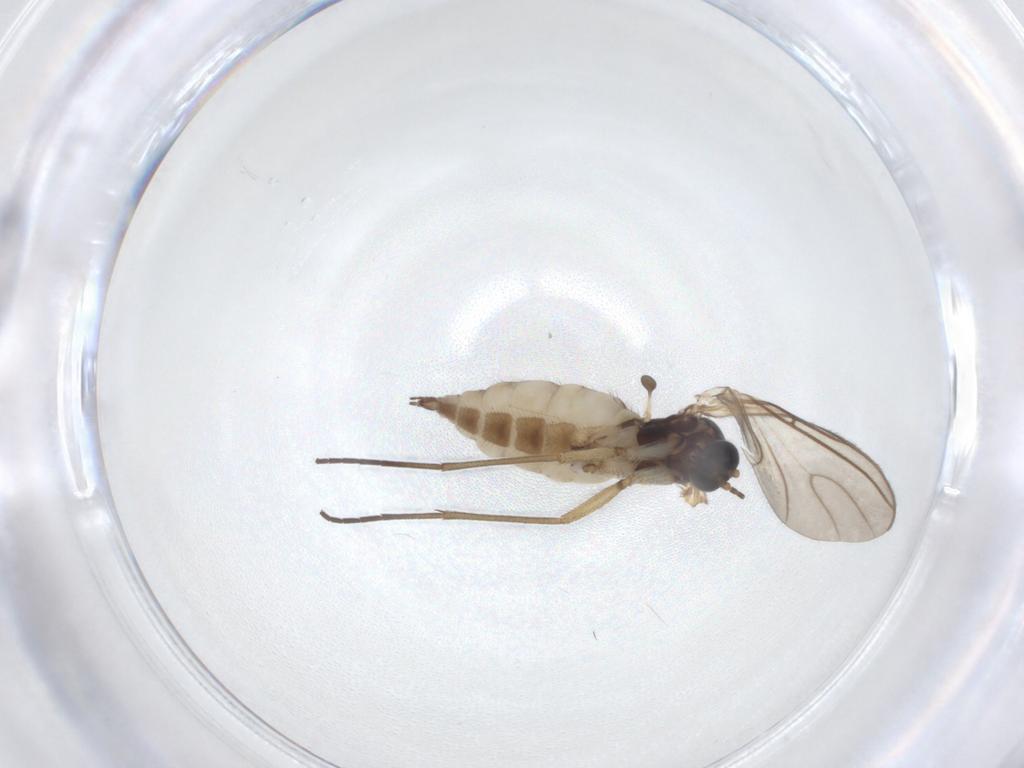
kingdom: Animalia
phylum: Arthropoda
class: Insecta
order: Diptera
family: Sciaridae
